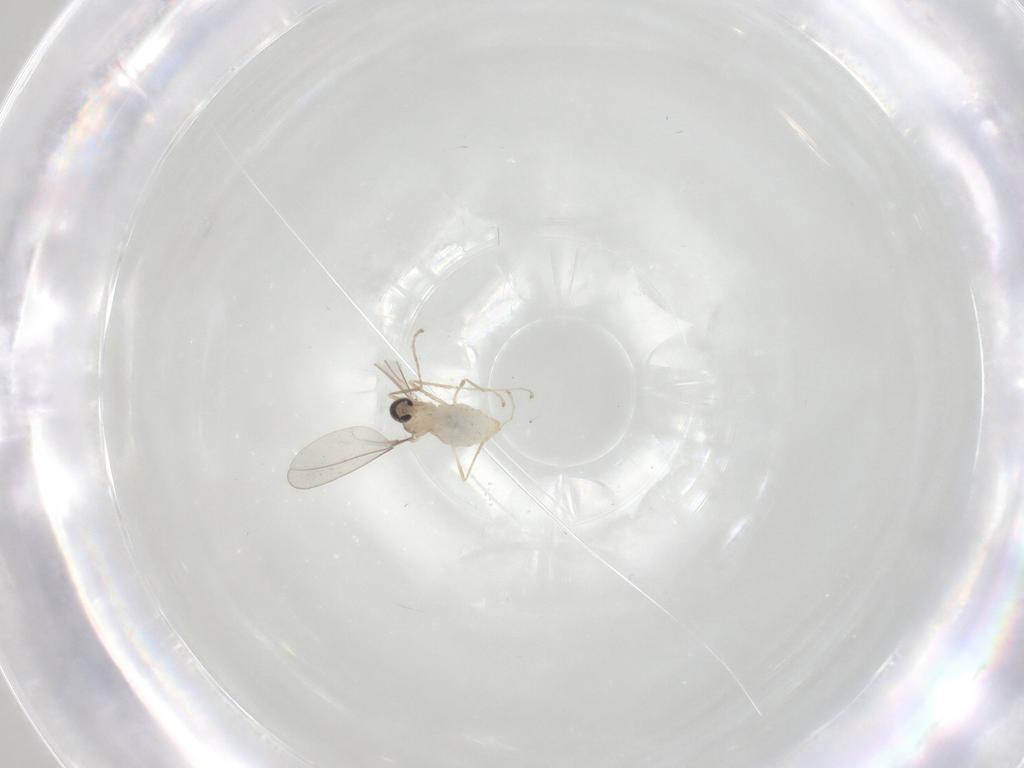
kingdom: Animalia
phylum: Arthropoda
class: Insecta
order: Diptera
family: Cecidomyiidae
